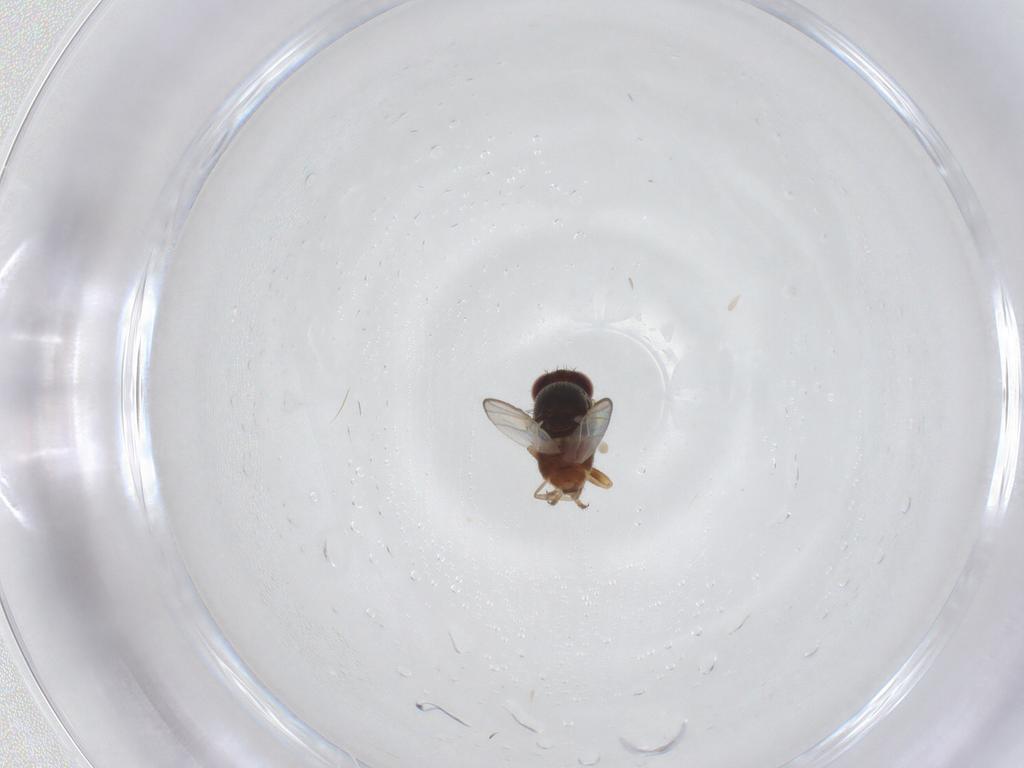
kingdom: Animalia
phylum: Arthropoda
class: Insecta
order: Diptera
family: Chloropidae
